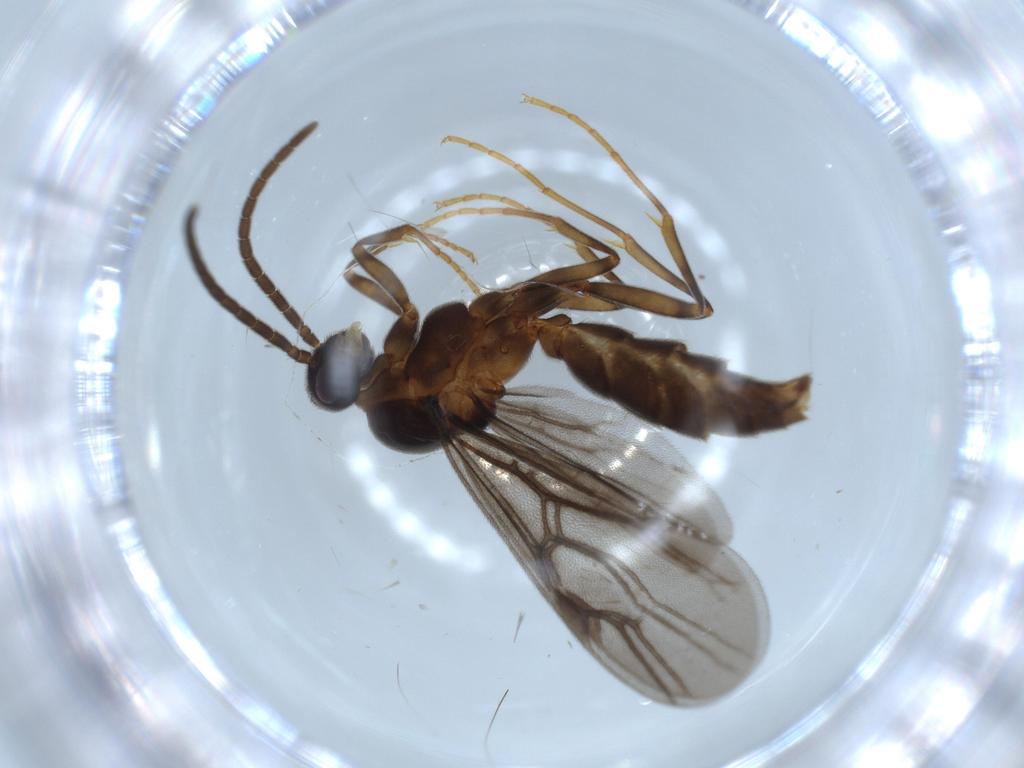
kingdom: Animalia
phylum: Arthropoda
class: Insecta
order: Hymenoptera
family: Formicidae
